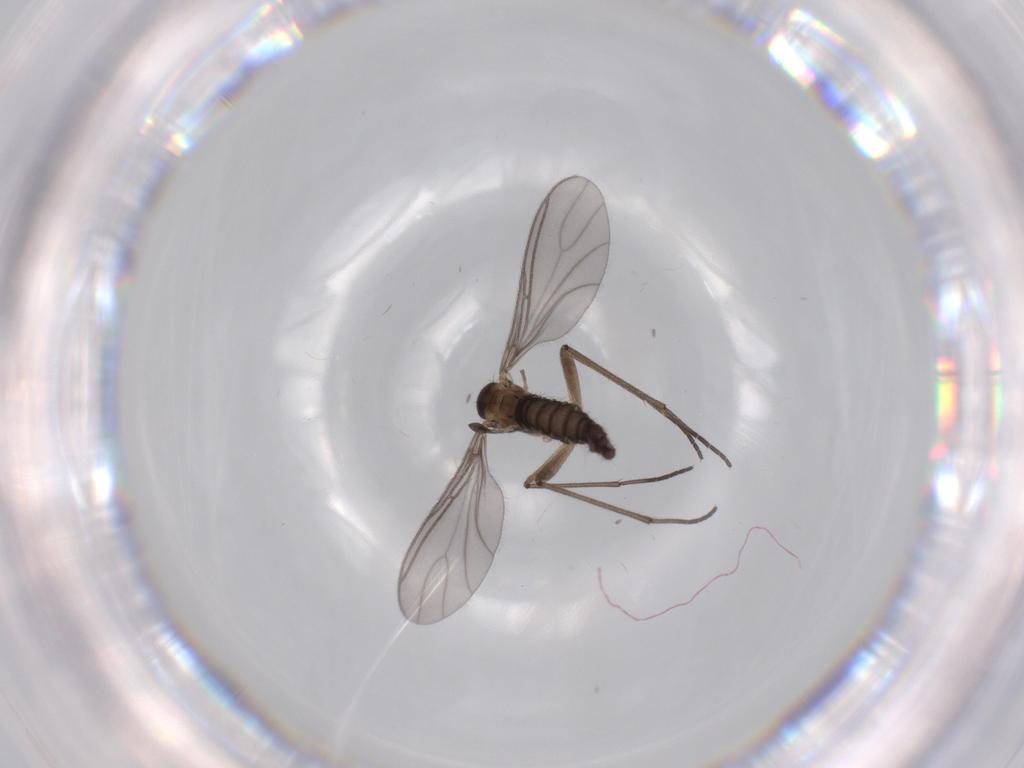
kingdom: Animalia
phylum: Arthropoda
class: Insecta
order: Diptera
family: Sciaridae
